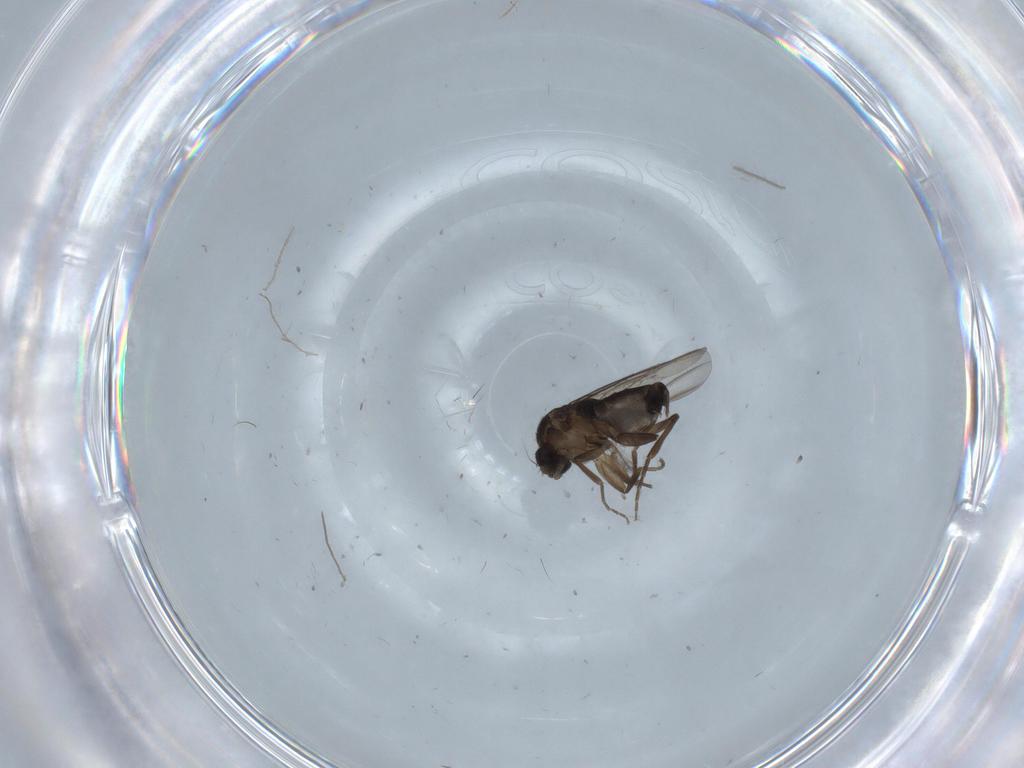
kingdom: Animalia
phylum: Arthropoda
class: Insecta
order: Diptera
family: Phoridae
